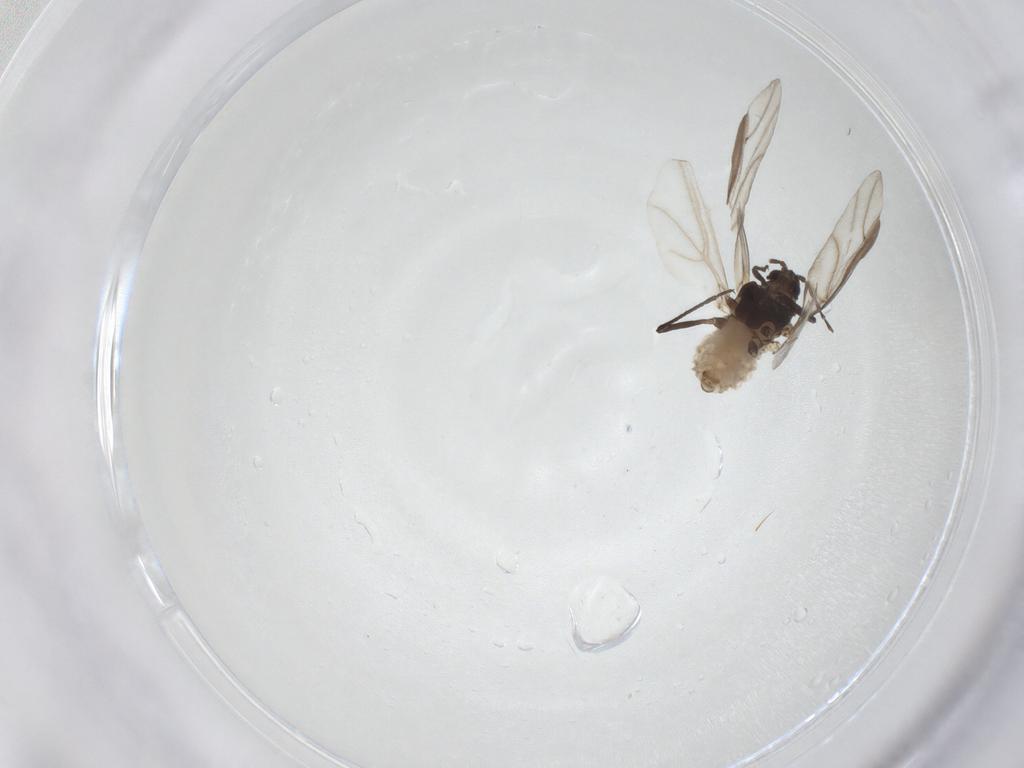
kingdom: Animalia
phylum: Arthropoda
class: Insecta
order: Hemiptera
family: Aphididae
